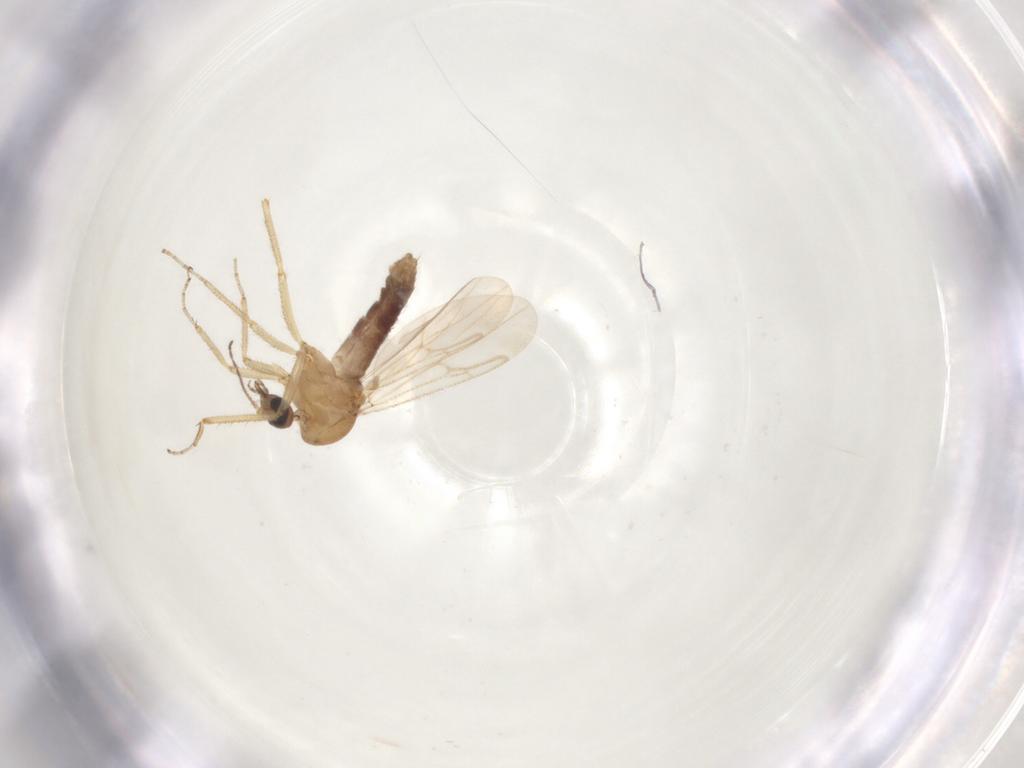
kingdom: Animalia
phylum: Arthropoda
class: Insecta
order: Diptera
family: Ceratopogonidae
